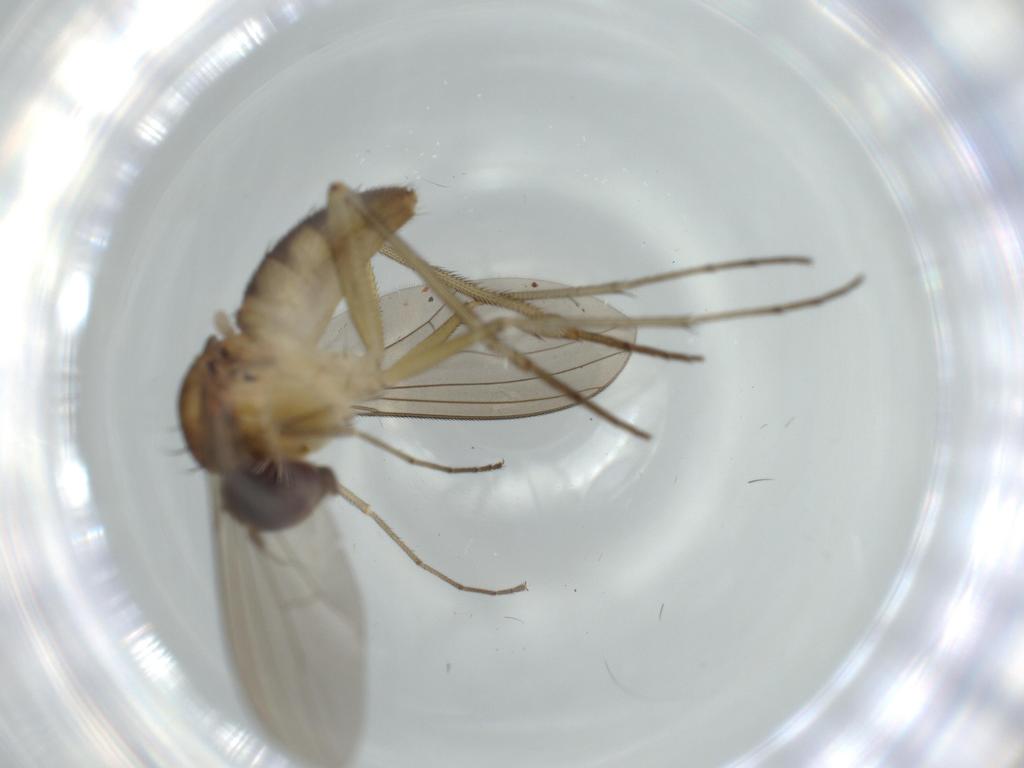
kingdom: Animalia
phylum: Arthropoda
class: Insecta
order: Diptera
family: Dolichopodidae
